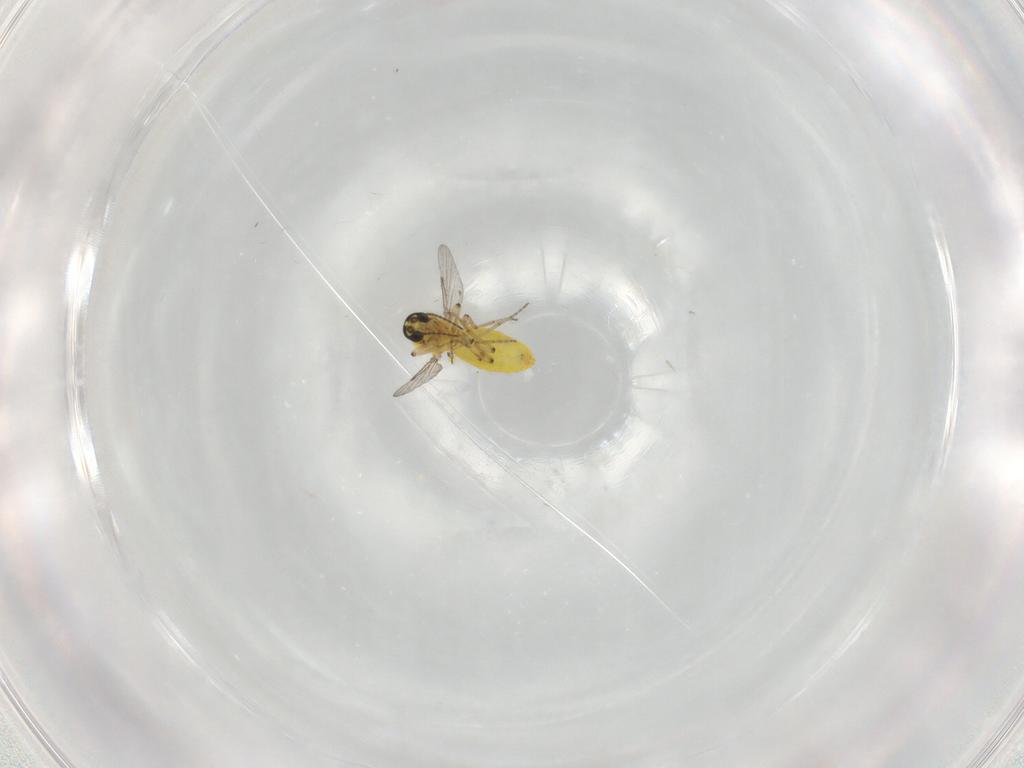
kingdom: Animalia
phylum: Arthropoda
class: Insecta
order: Diptera
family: Ceratopogonidae
